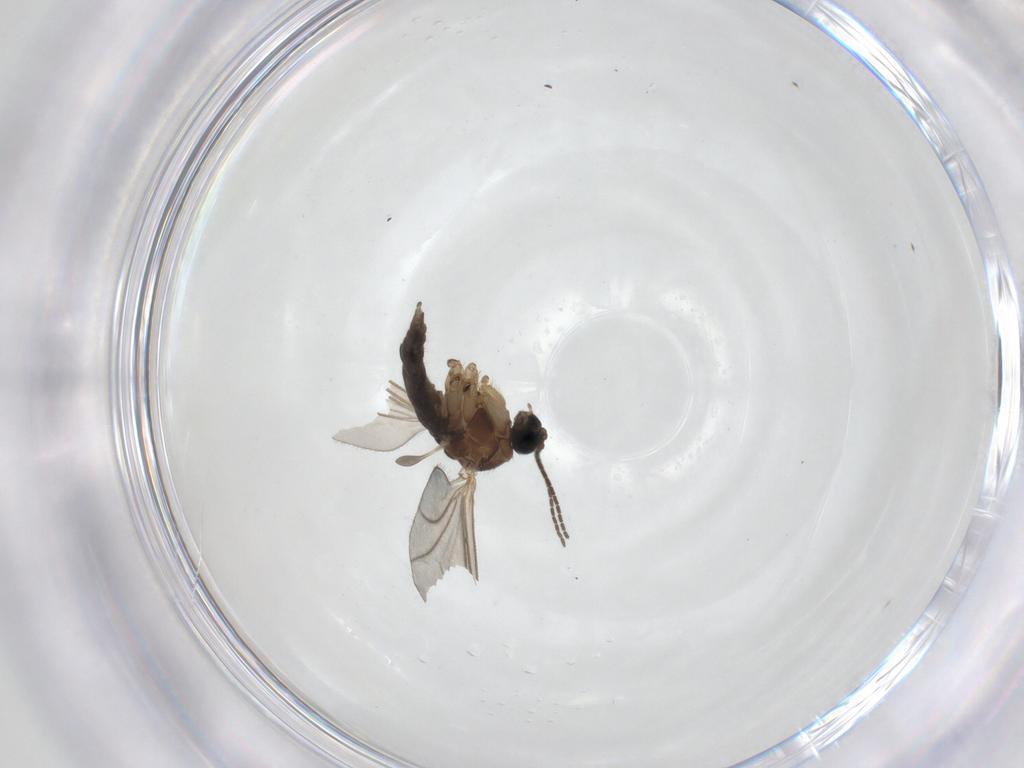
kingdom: Animalia
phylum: Arthropoda
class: Insecta
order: Diptera
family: Sciaridae
